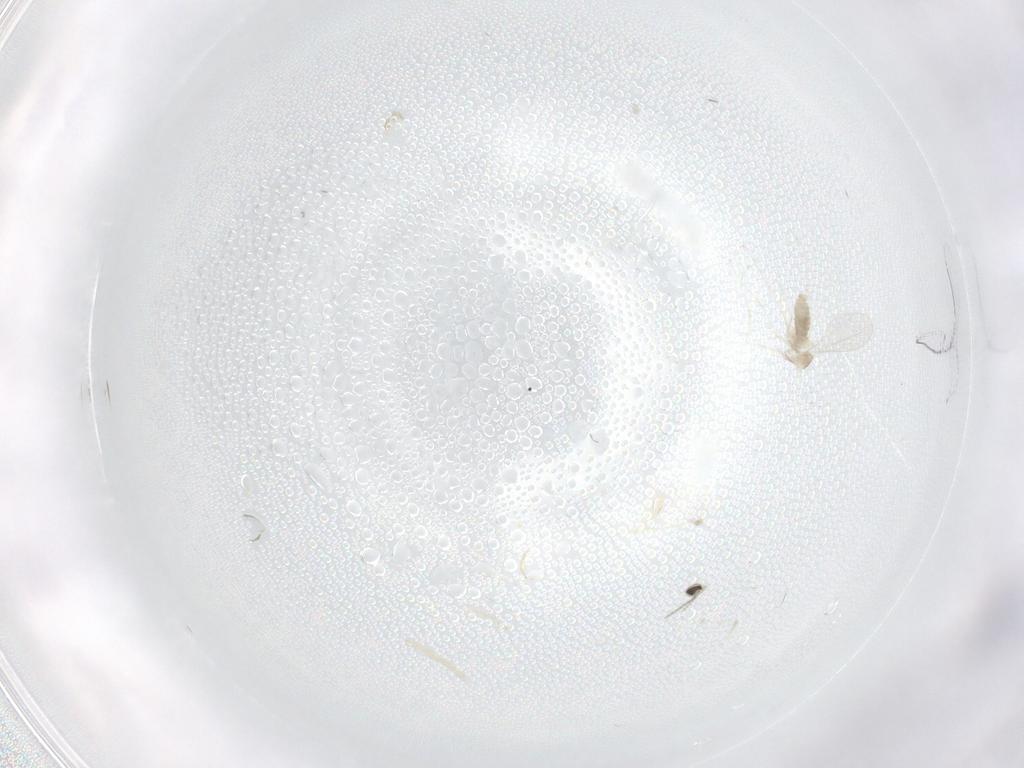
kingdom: Animalia
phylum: Arthropoda
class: Insecta
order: Diptera
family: Cecidomyiidae
